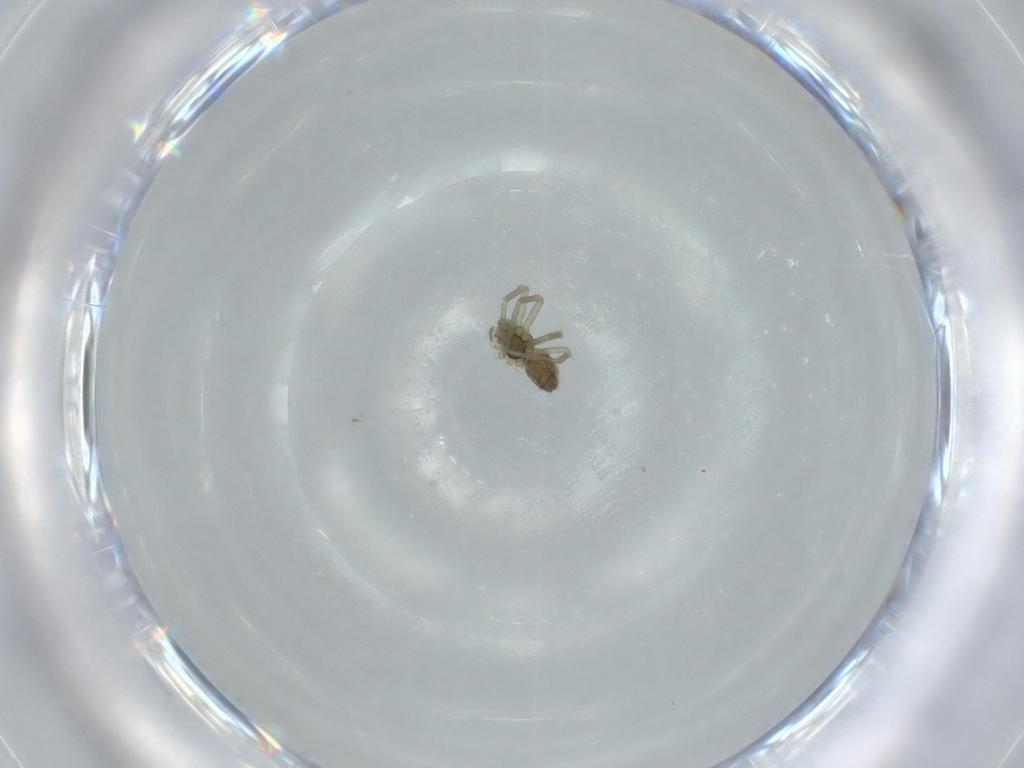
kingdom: Animalia
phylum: Arthropoda
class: Arachnida
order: Araneae
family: Linyphiidae
